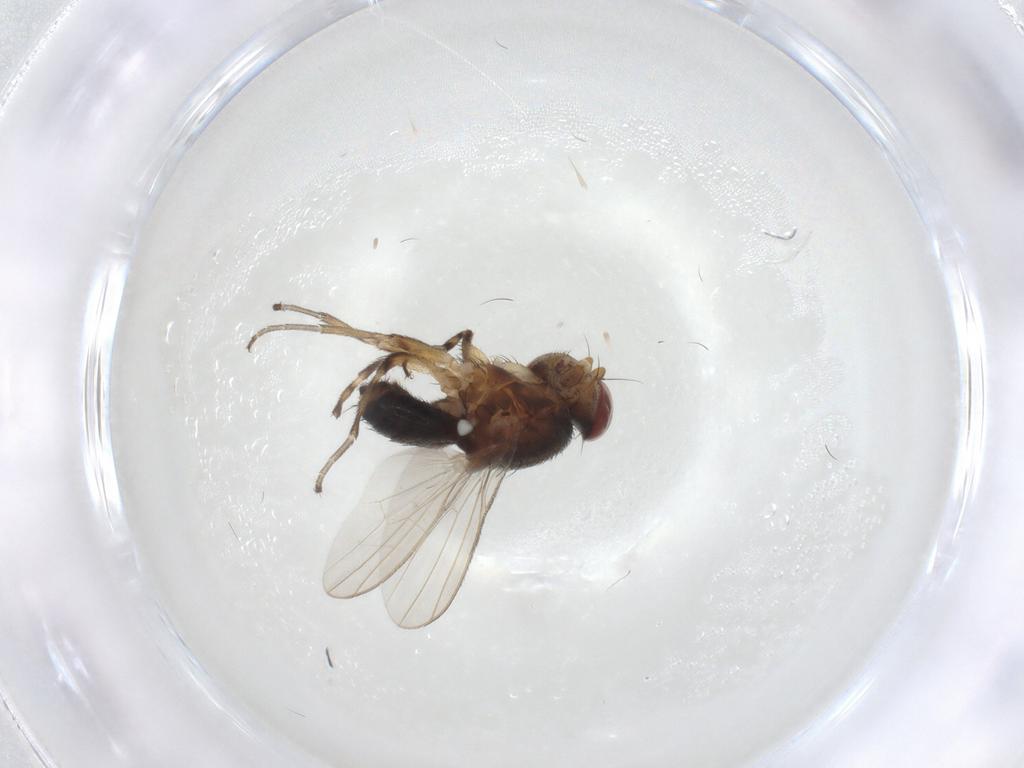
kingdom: Animalia
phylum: Arthropoda
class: Insecta
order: Diptera
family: Heleomyzidae
